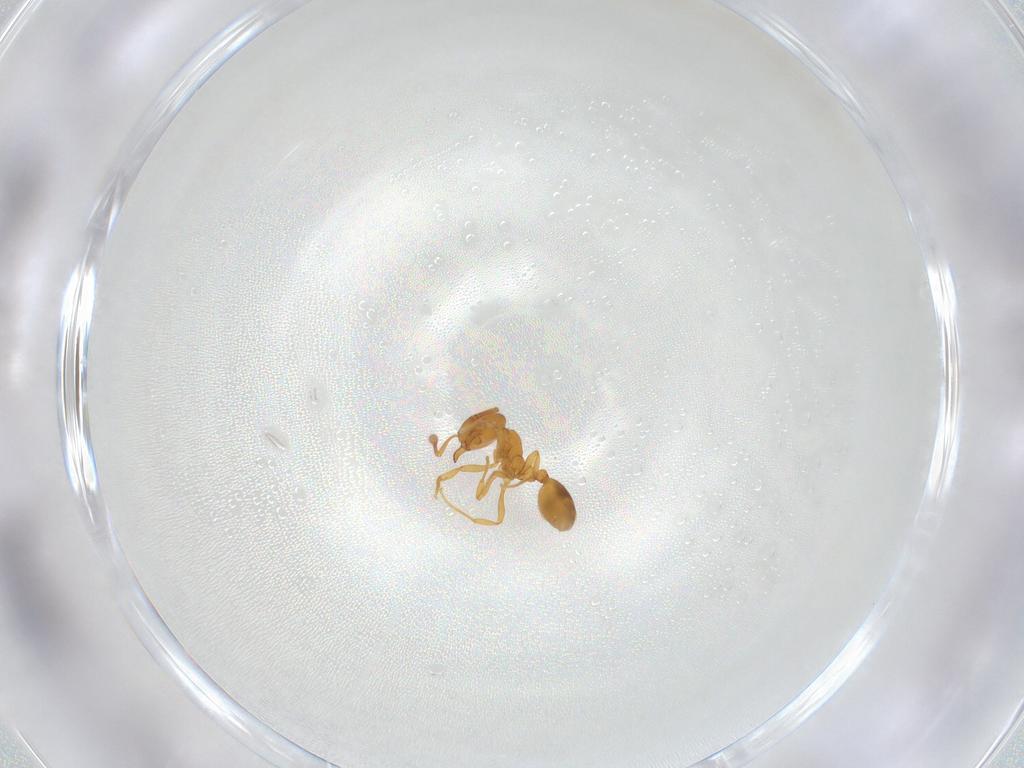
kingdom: Animalia
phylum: Arthropoda
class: Insecta
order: Hymenoptera
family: Formicidae
